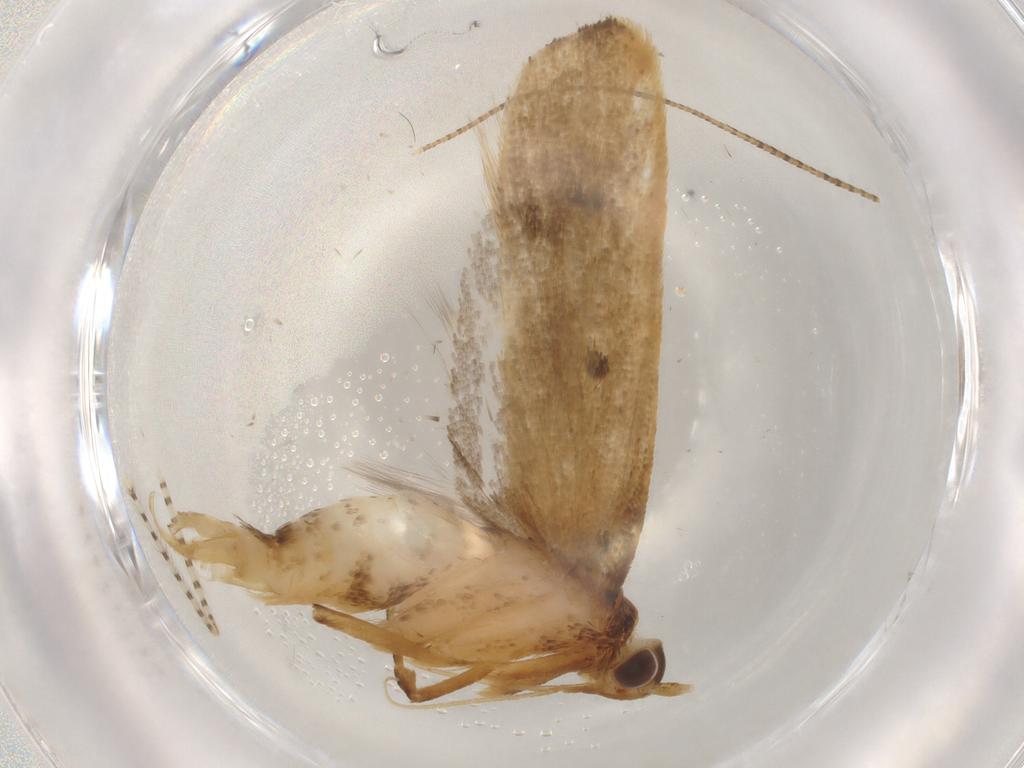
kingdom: Animalia
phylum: Arthropoda
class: Insecta
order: Lepidoptera
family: Lecithoceridae
